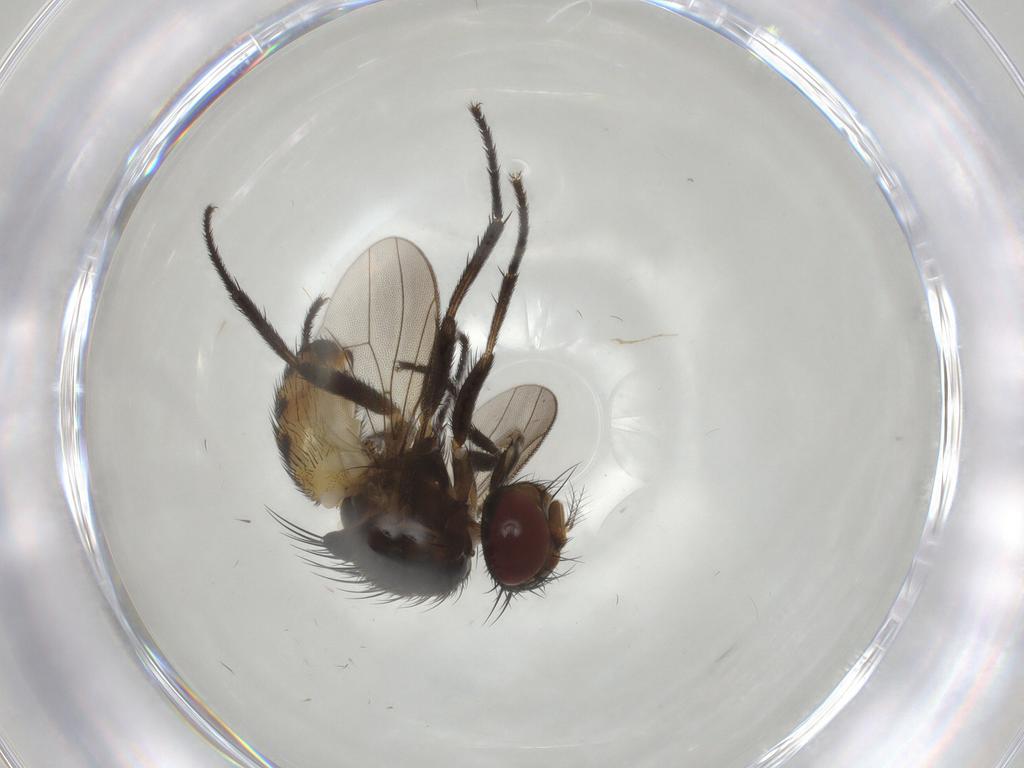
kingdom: Animalia
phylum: Arthropoda
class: Insecta
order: Diptera
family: Anthomyiidae
